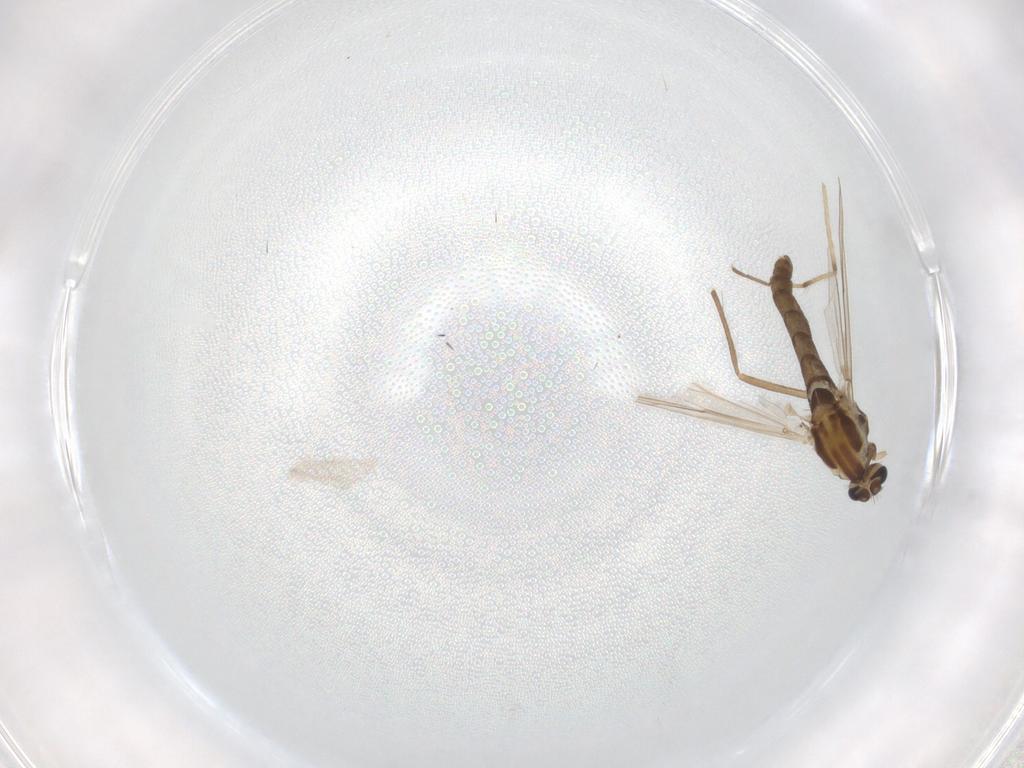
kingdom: Animalia
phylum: Arthropoda
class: Insecta
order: Diptera
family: Chironomidae
